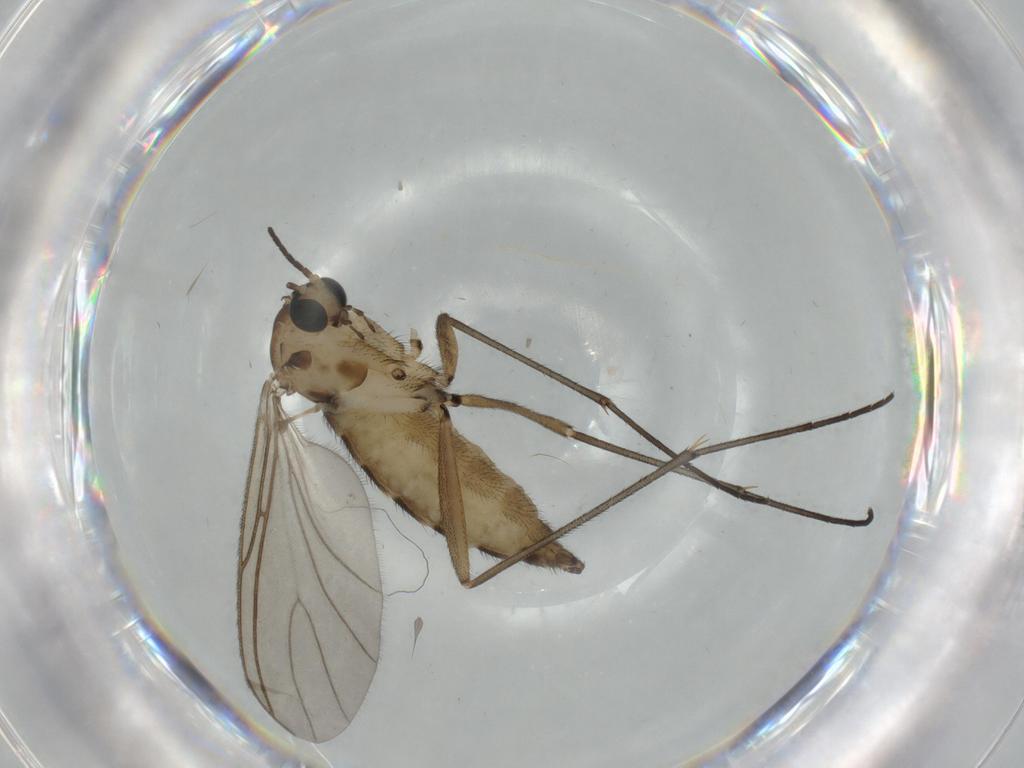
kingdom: Animalia
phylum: Arthropoda
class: Insecta
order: Diptera
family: Sciaridae
